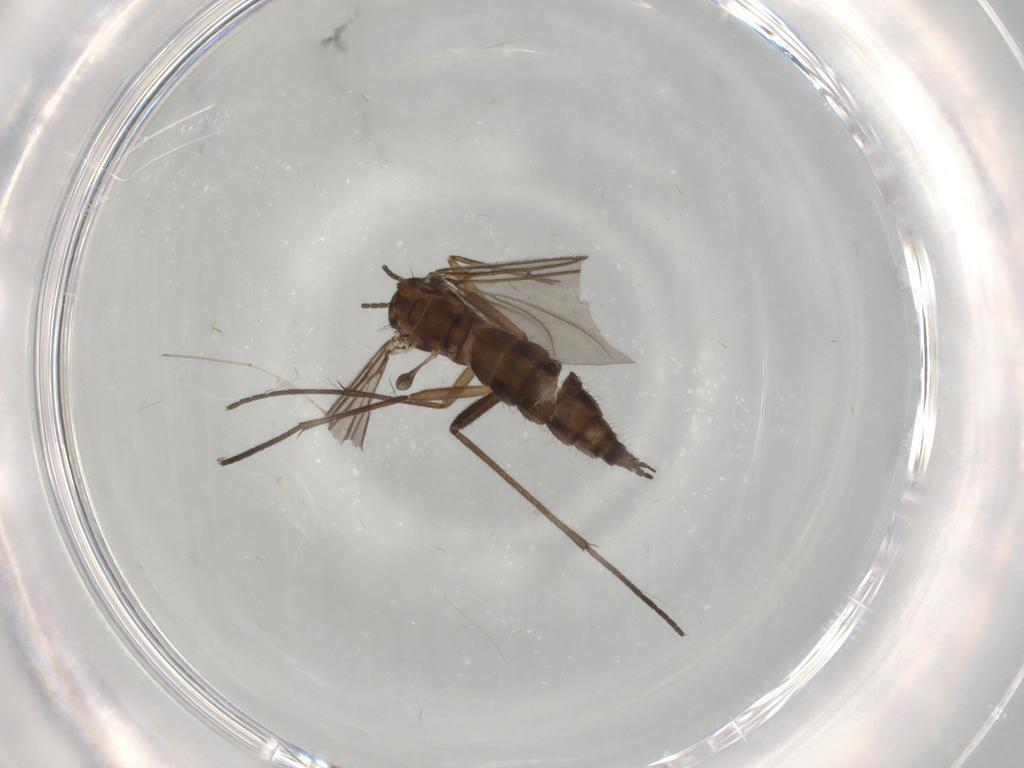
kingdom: Animalia
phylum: Arthropoda
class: Insecta
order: Diptera
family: Sciaridae
